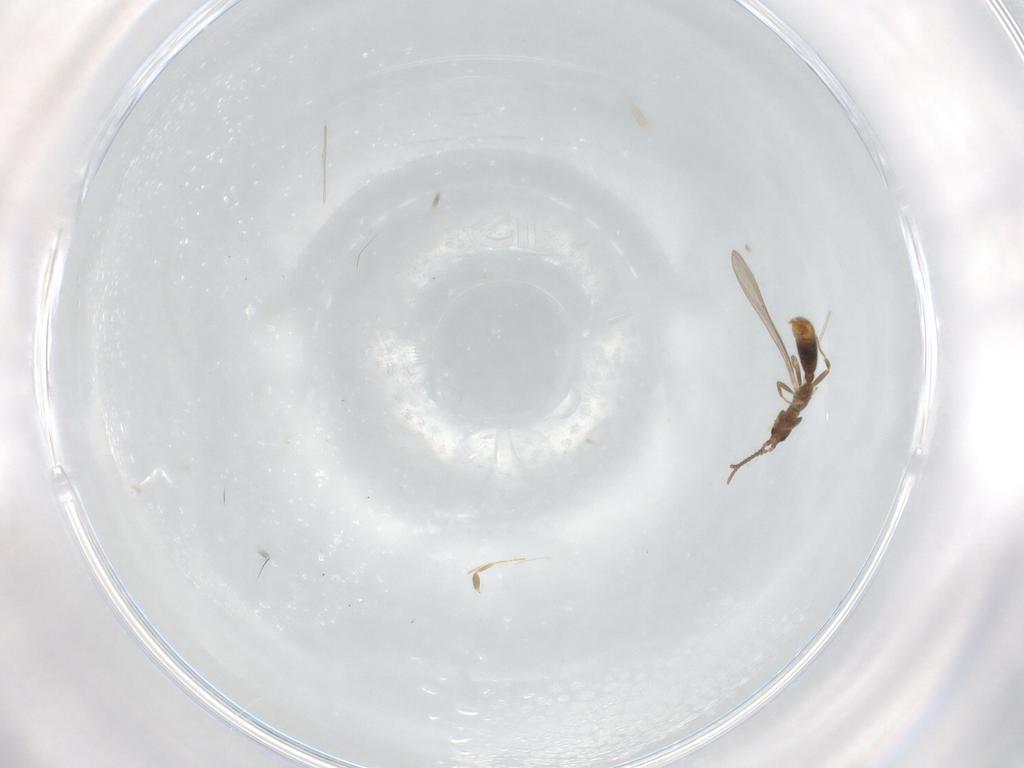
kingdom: Animalia
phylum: Arthropoda
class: Insecta
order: Hymenoptera
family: Formicidae
